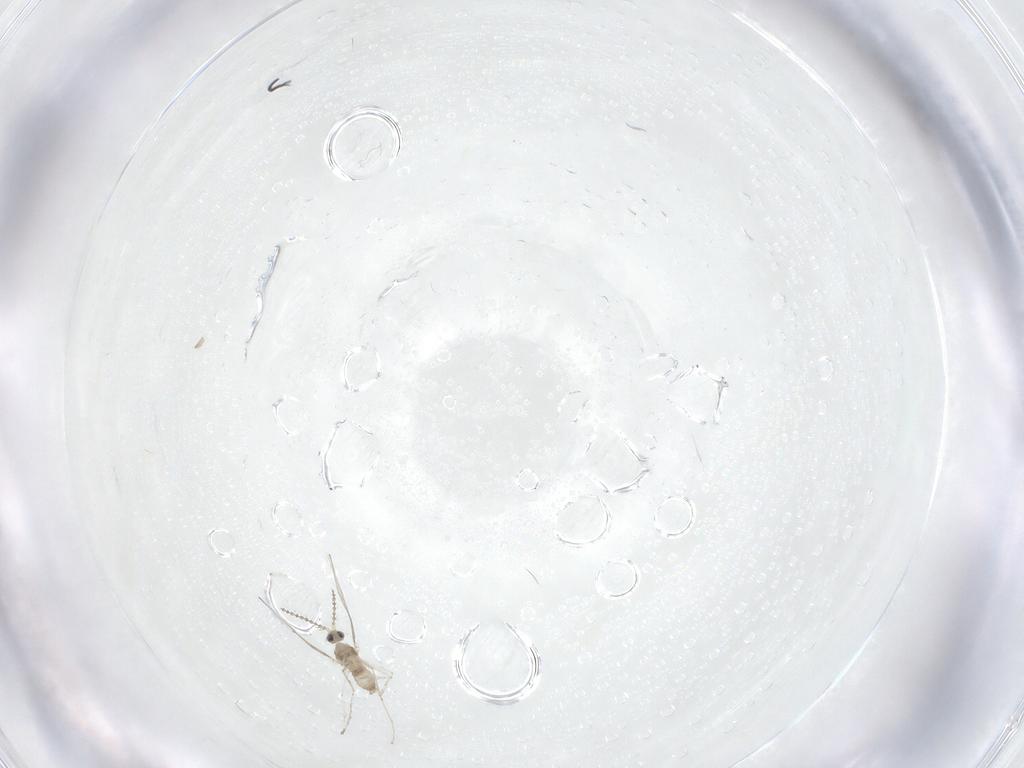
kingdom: Animalia
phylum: Arthropoda
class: Insecta
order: Diptera
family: Cecidomyiidae
